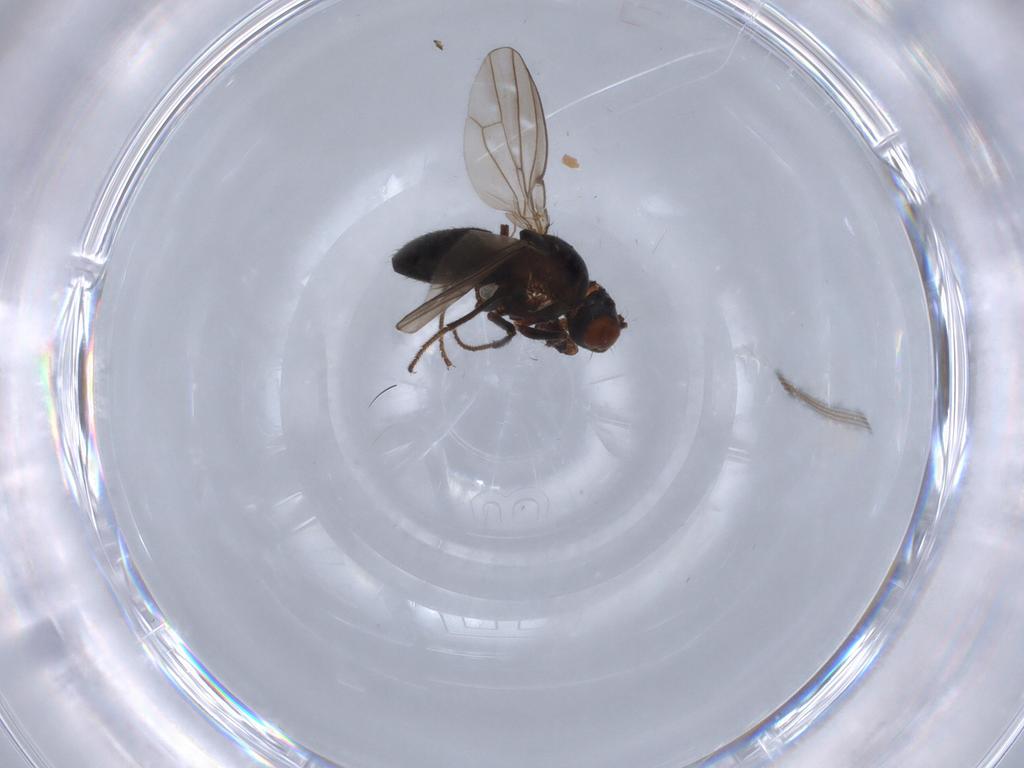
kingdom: Animalia
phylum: Arthropoda
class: Insecta
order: Diptera
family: Ephydridae
